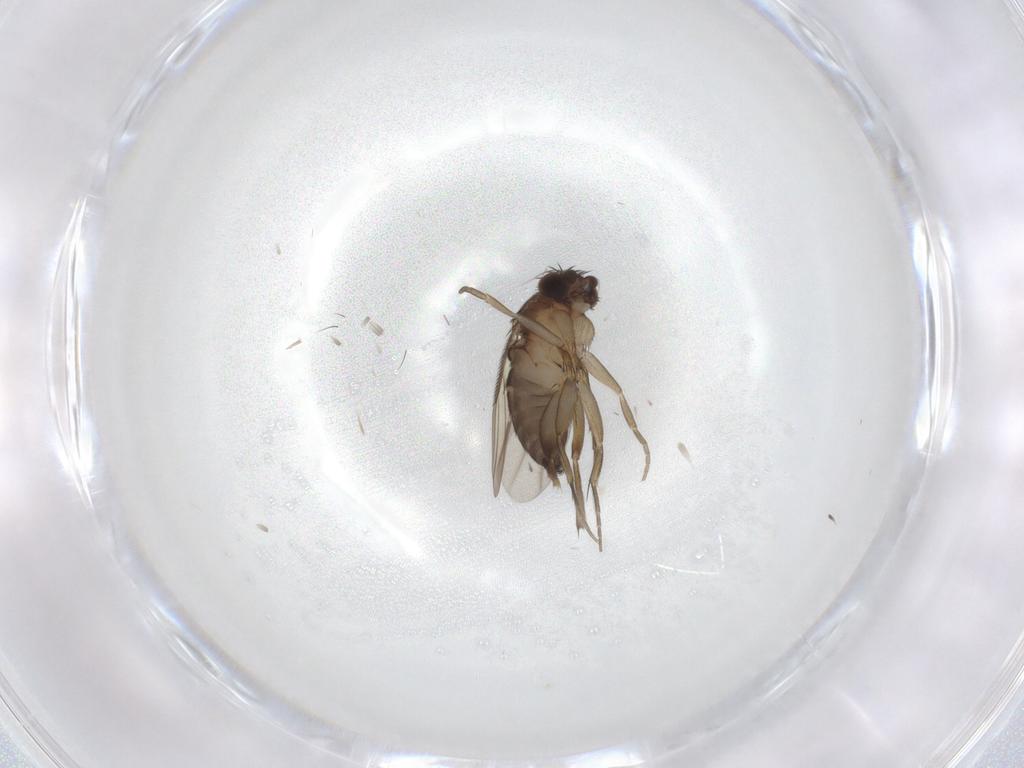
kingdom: Animalia
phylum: Arthropoda
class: Insecta
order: Diptera
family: Phoridae
